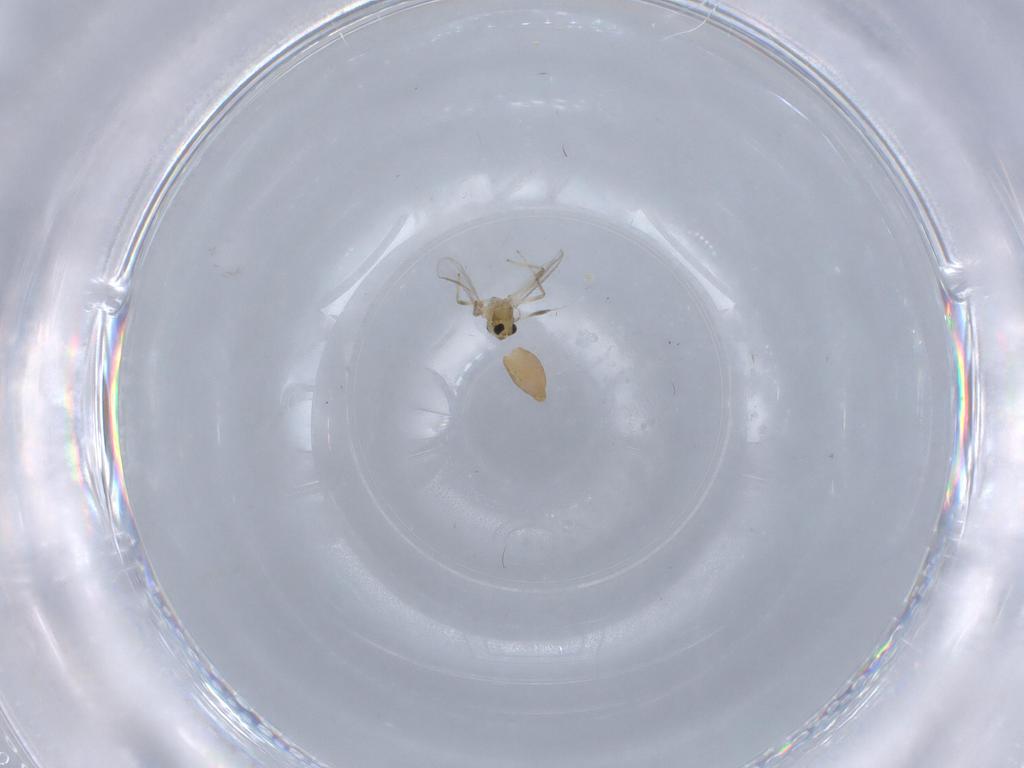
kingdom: Animalia
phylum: Arthropoda
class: Insecta
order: Diptera
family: Chironomidae
